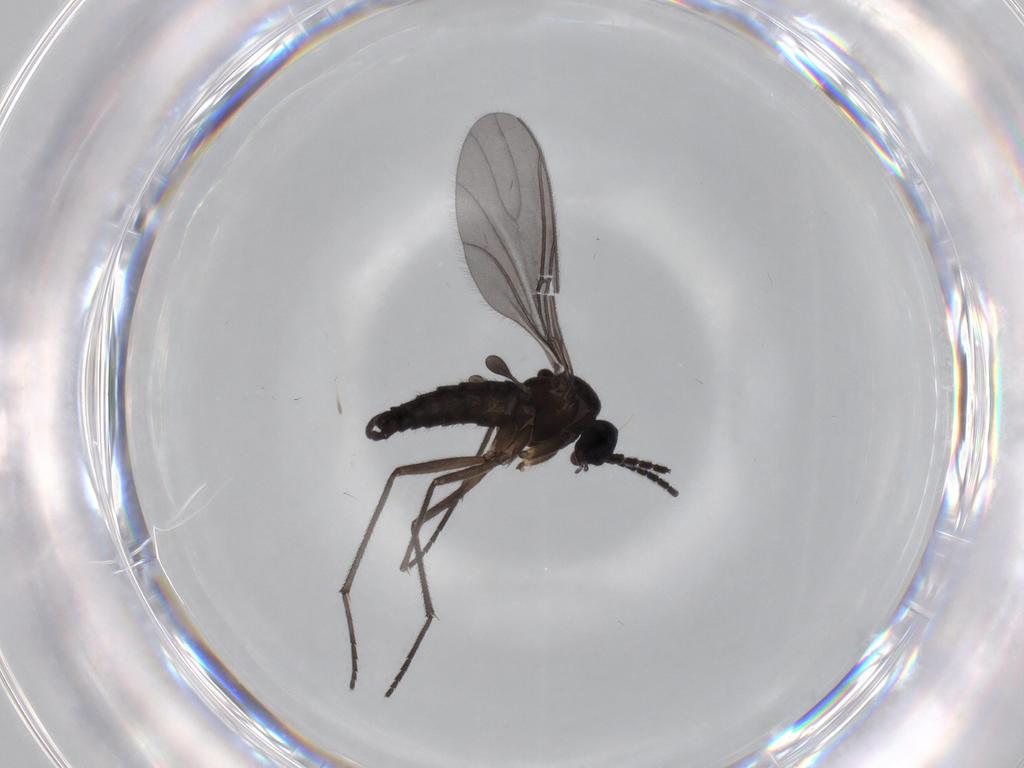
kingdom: Animalia
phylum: Arthropoda
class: Insecta
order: Diptera
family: Sciaridae
